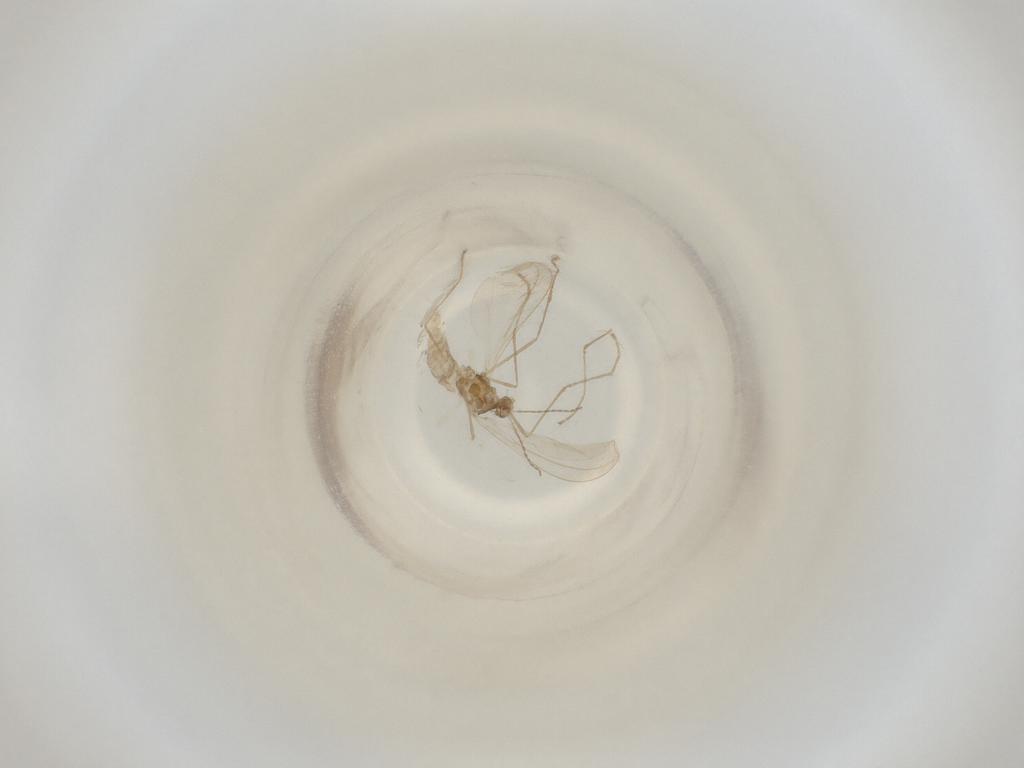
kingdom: Animalia
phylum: Arthropoda
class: Insecta
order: Diptera
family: Cecidomyiidae
